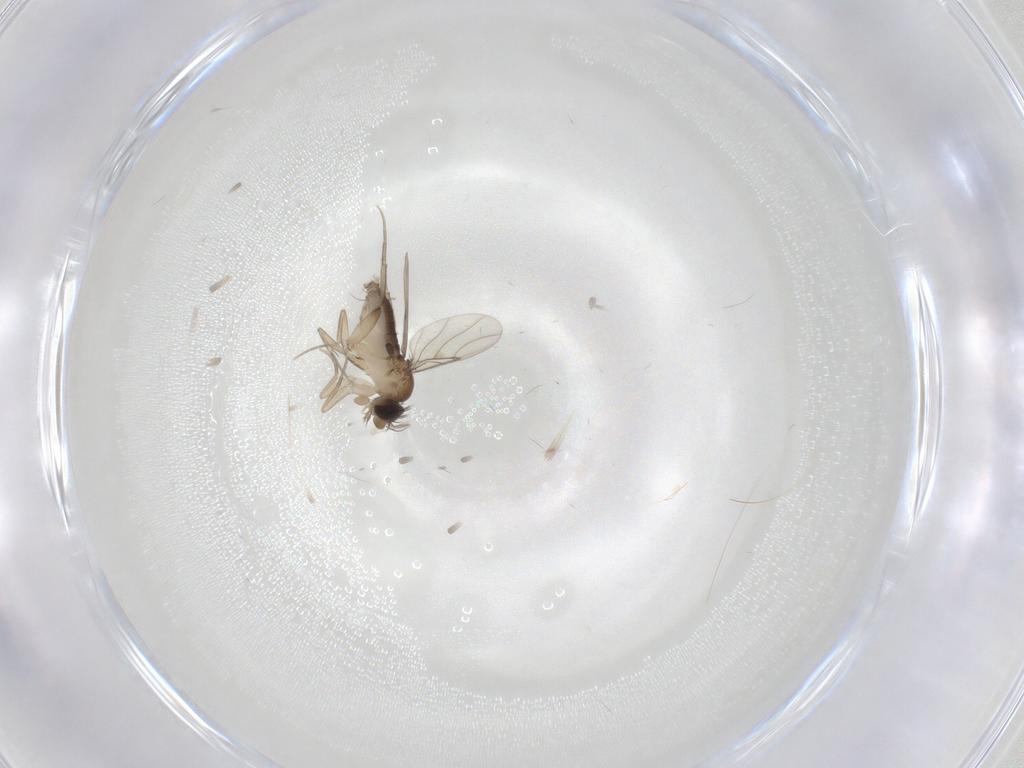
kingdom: Animalia
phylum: Arthropoda
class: Insecta
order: Diptera
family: Phoridae
